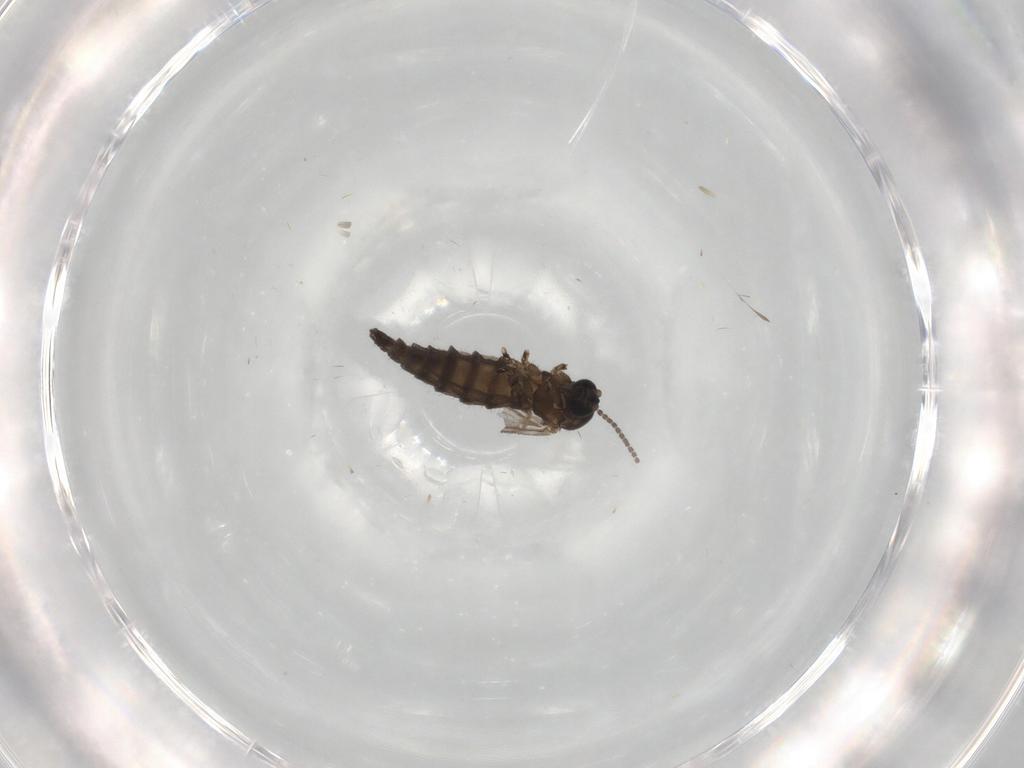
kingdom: Animalia
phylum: Arthropoda
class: Insecta
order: Diptera
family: Sciaridae
